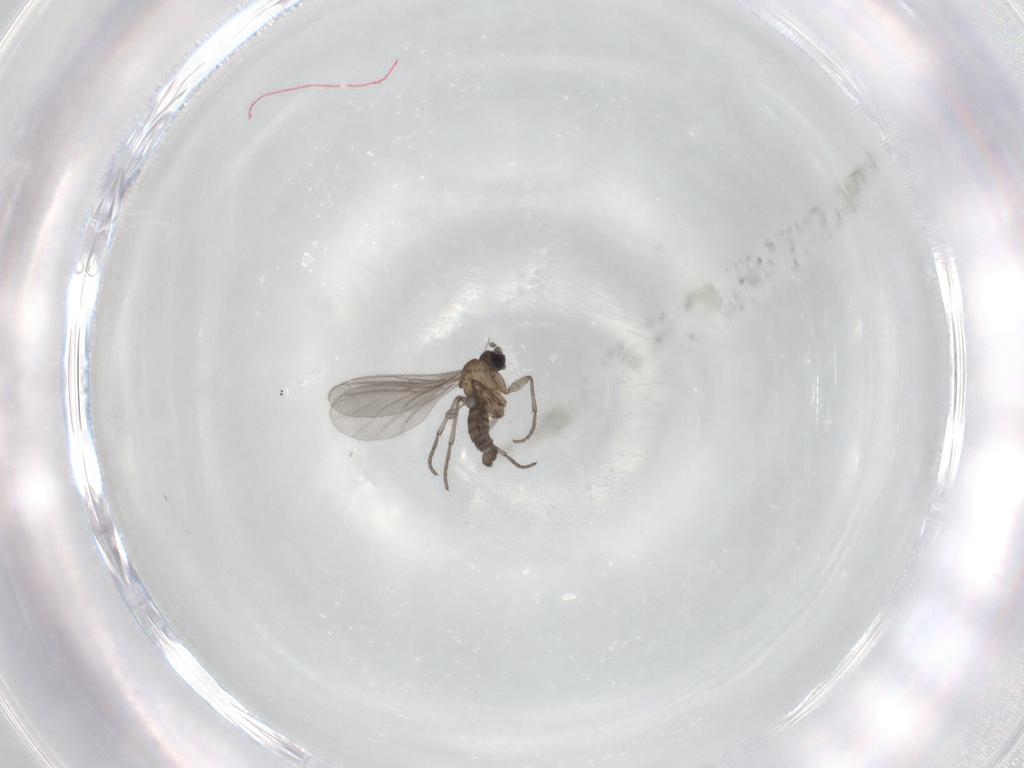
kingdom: Animalia
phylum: Arthropoda
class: Insecta
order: Diptera
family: Sciaridae
